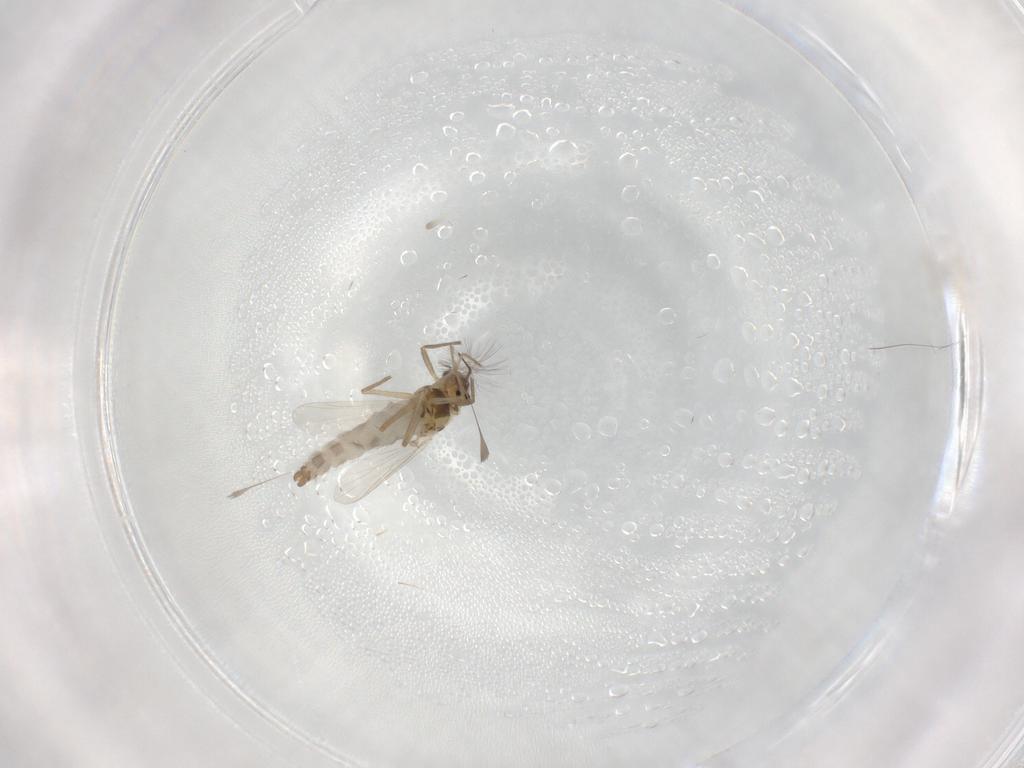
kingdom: Animalia
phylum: Arthropoda
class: Insecta
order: Diptera
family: Chironomidae
